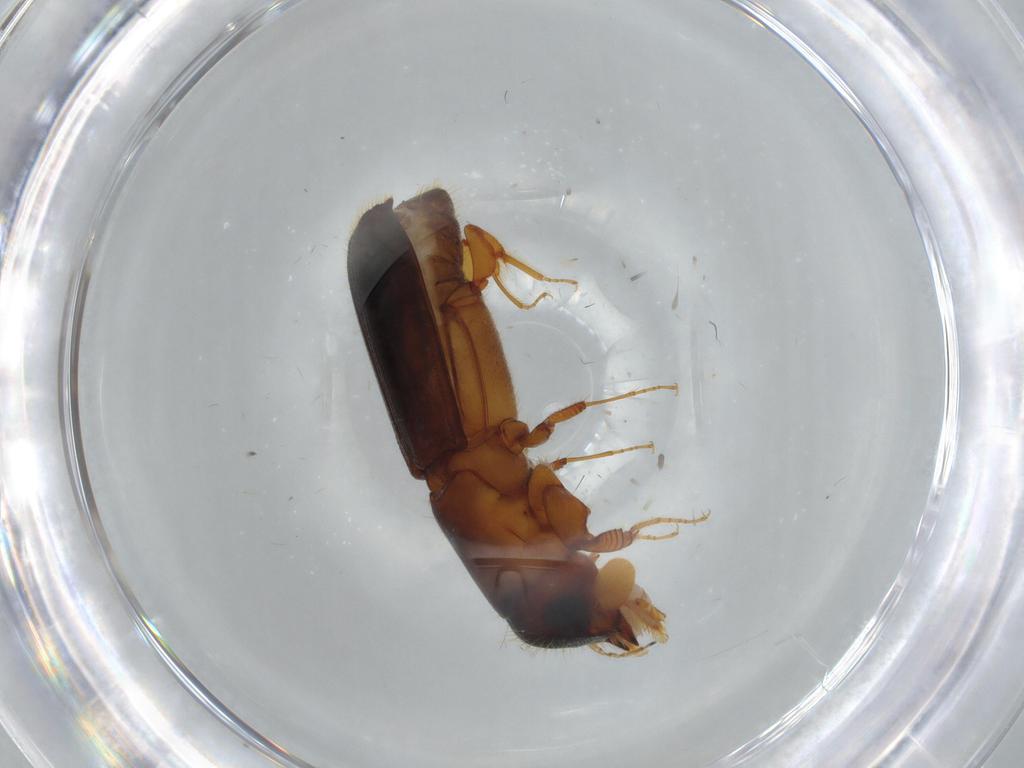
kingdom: Animalia
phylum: Arthropoda
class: Insecta
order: Coleoptera
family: Curculionidae
